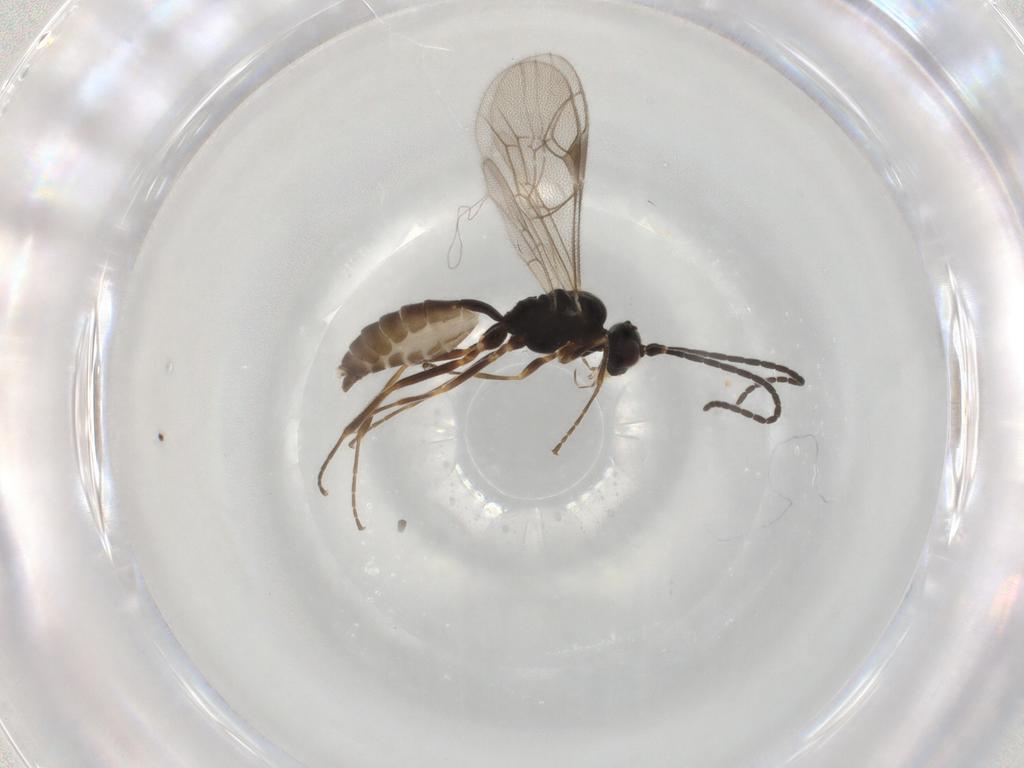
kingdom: Animalia
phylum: Arthropoda
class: Insecta
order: Hymenoptera
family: Ichneumonidae
